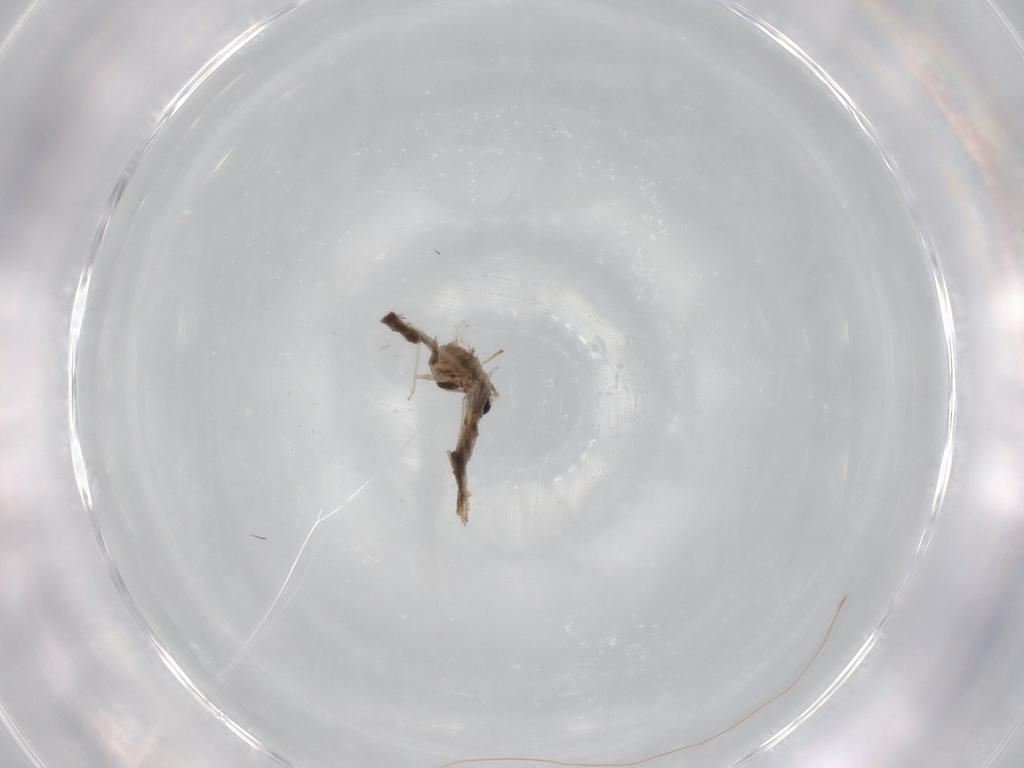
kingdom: Animalia
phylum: Arthropoda
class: Insecta
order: Diptera
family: Cecidomyiidae
